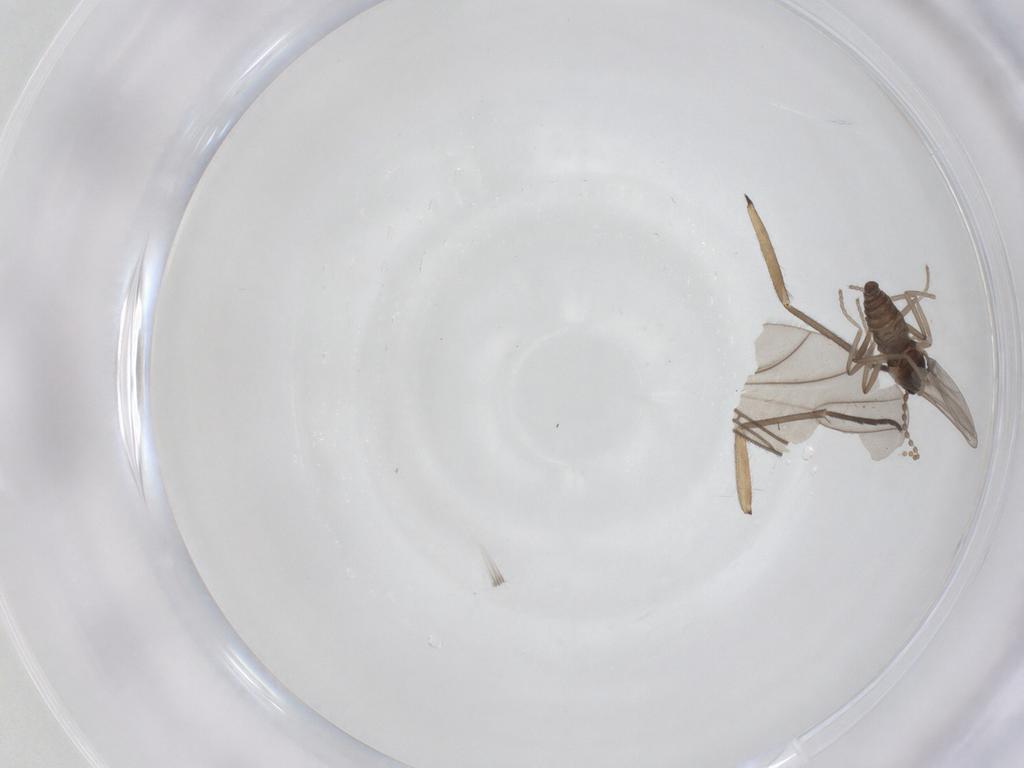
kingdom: Animalia
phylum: Arthropoda
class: Insecta
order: Diptera
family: Cecidomyiidae
